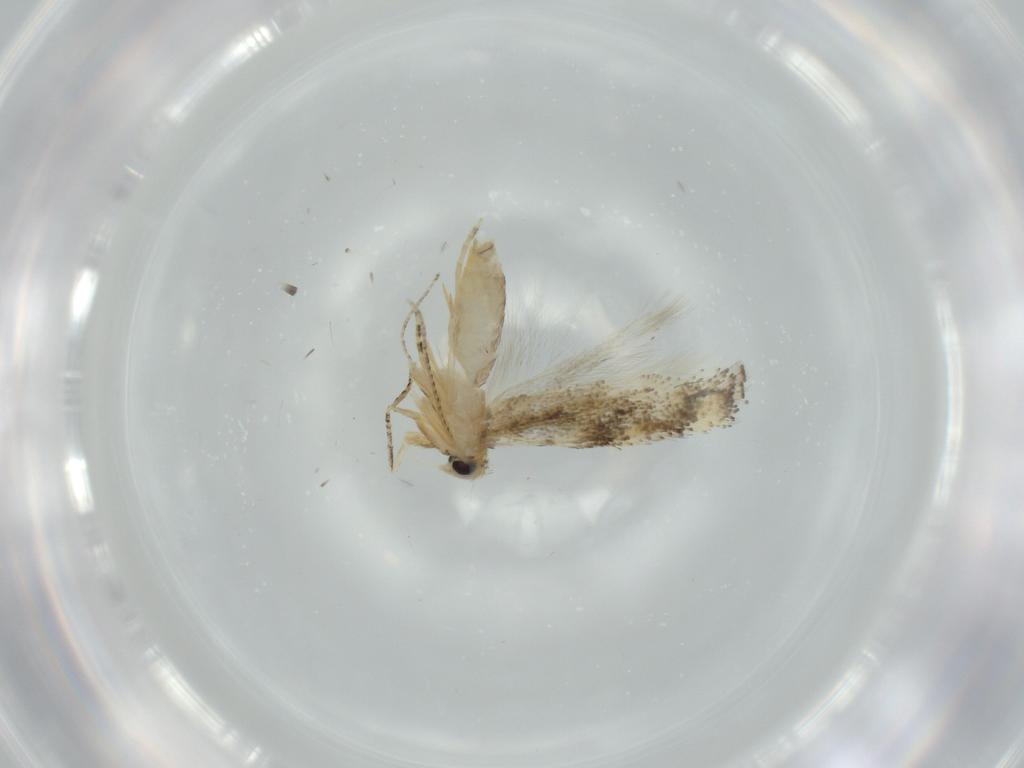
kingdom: Animalia
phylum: Arthropoda
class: Insecta
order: Lepidoptera
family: Bucculatricidae
